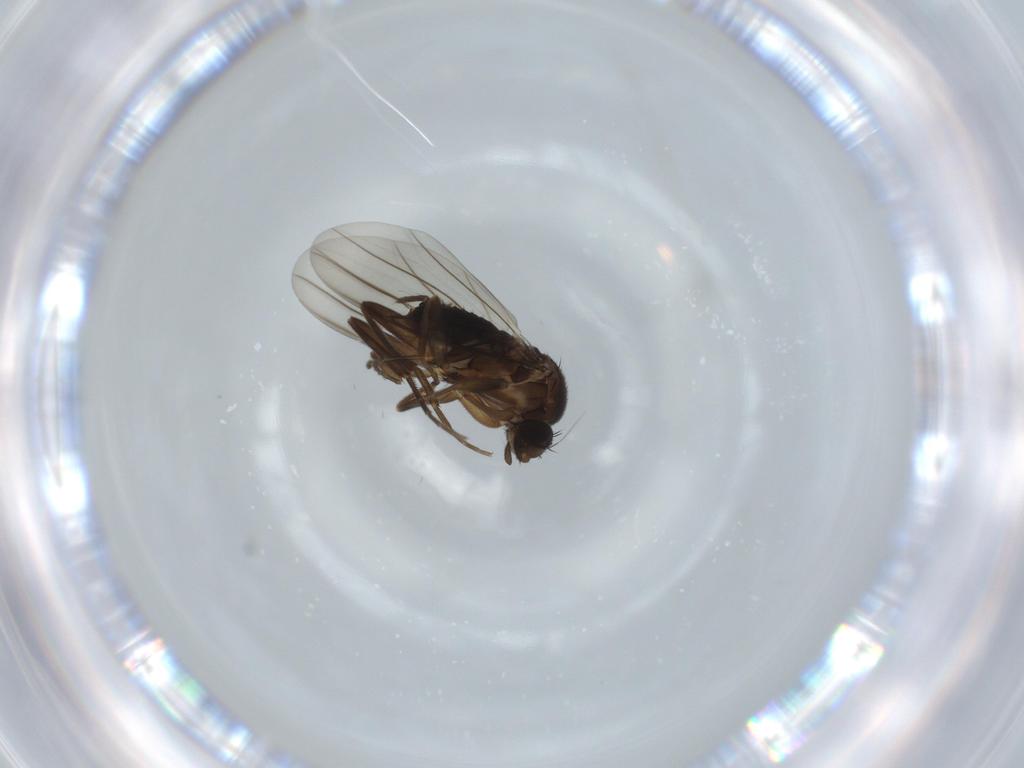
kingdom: Animalia
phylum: Arthropoda
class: Insecta
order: Diptera
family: Phoridae
